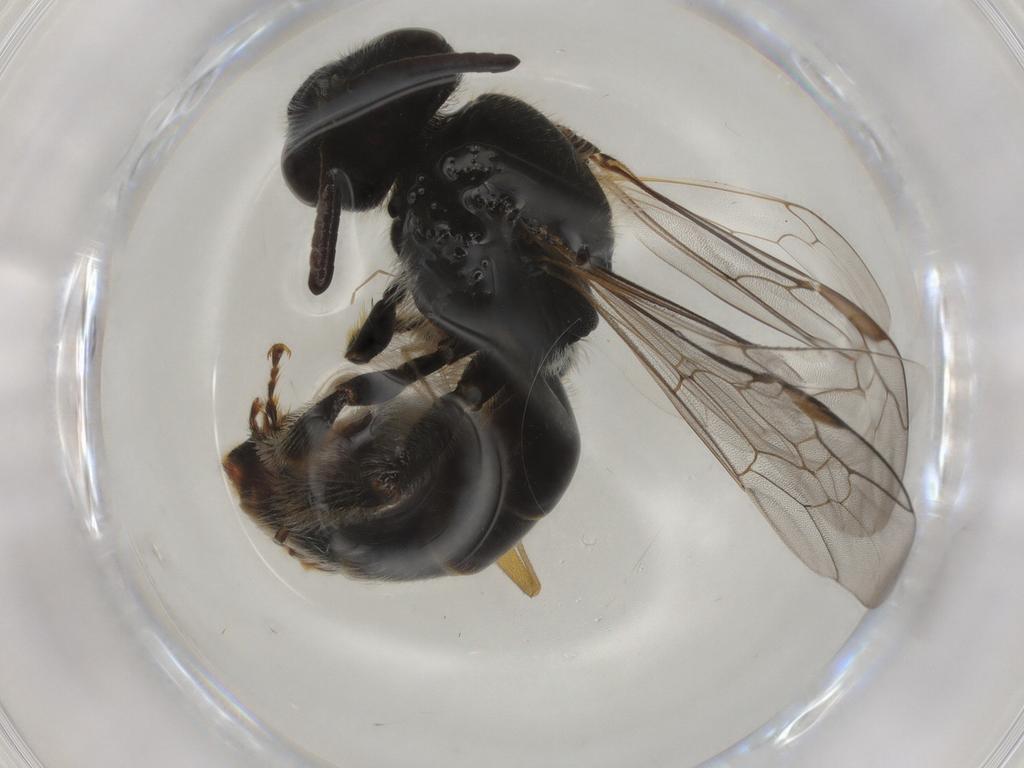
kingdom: Animalia
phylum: Arthropoda
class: Insecta
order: Hymenoptera
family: Halictidae
